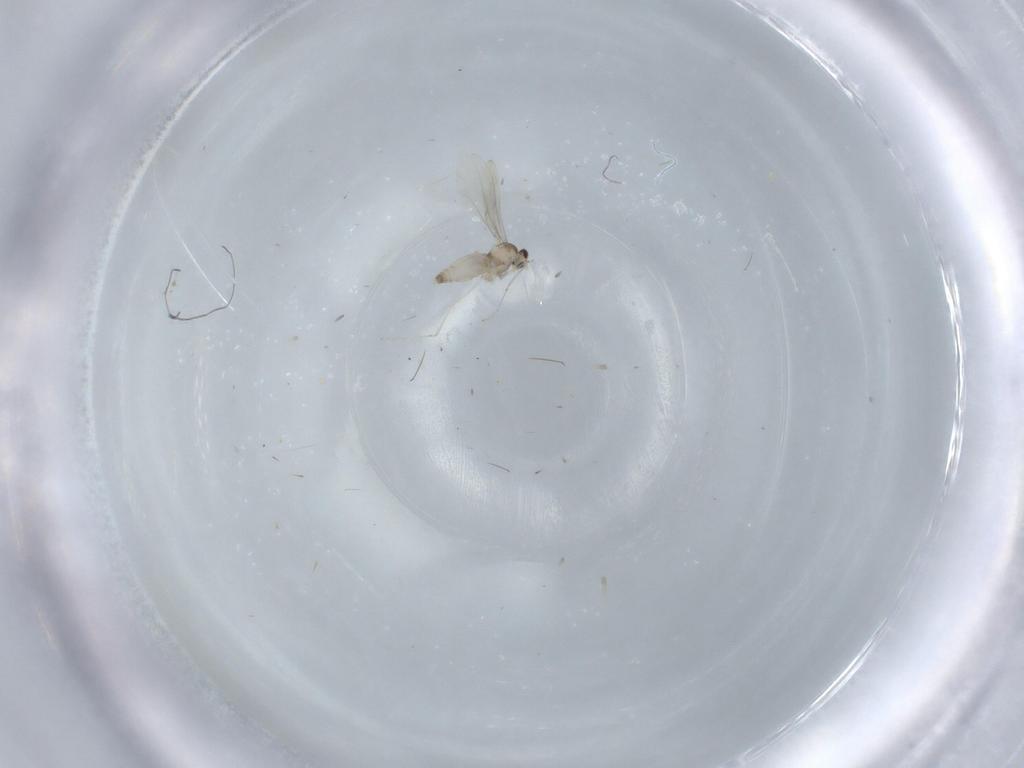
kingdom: Animalia
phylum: Arthropoda
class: Insecta
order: Diptera
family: Cecidomyiidae
